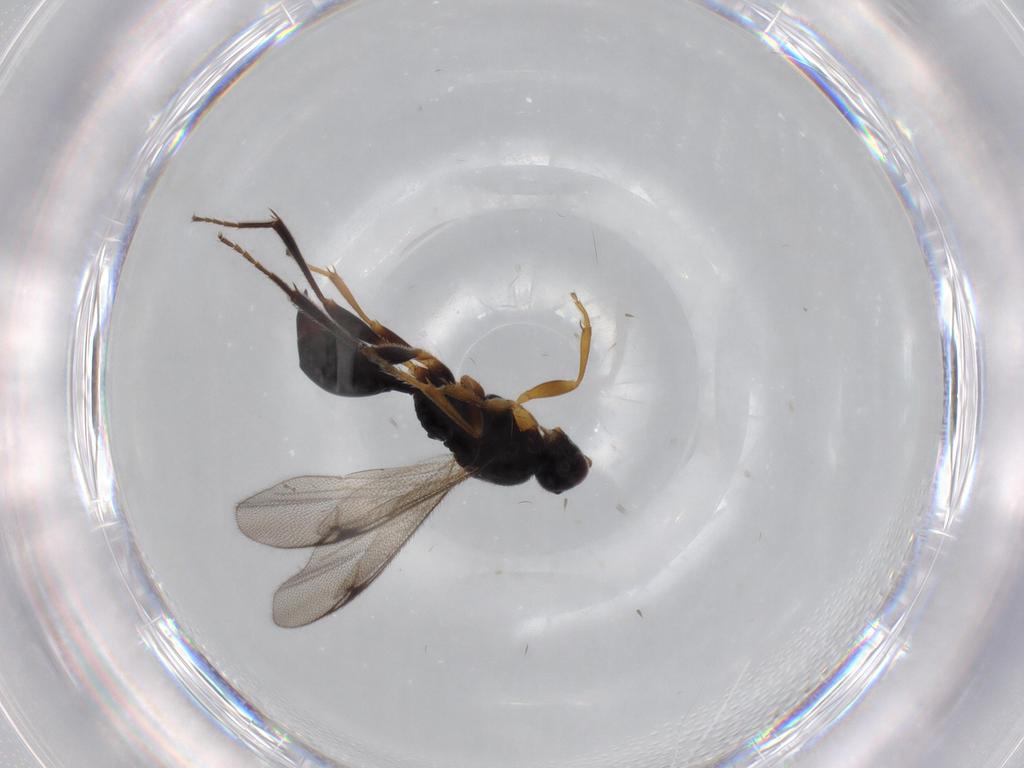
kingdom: Animalia
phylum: Arthropoda
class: Insecta
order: Hymenoptera
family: Proctotrupidae
